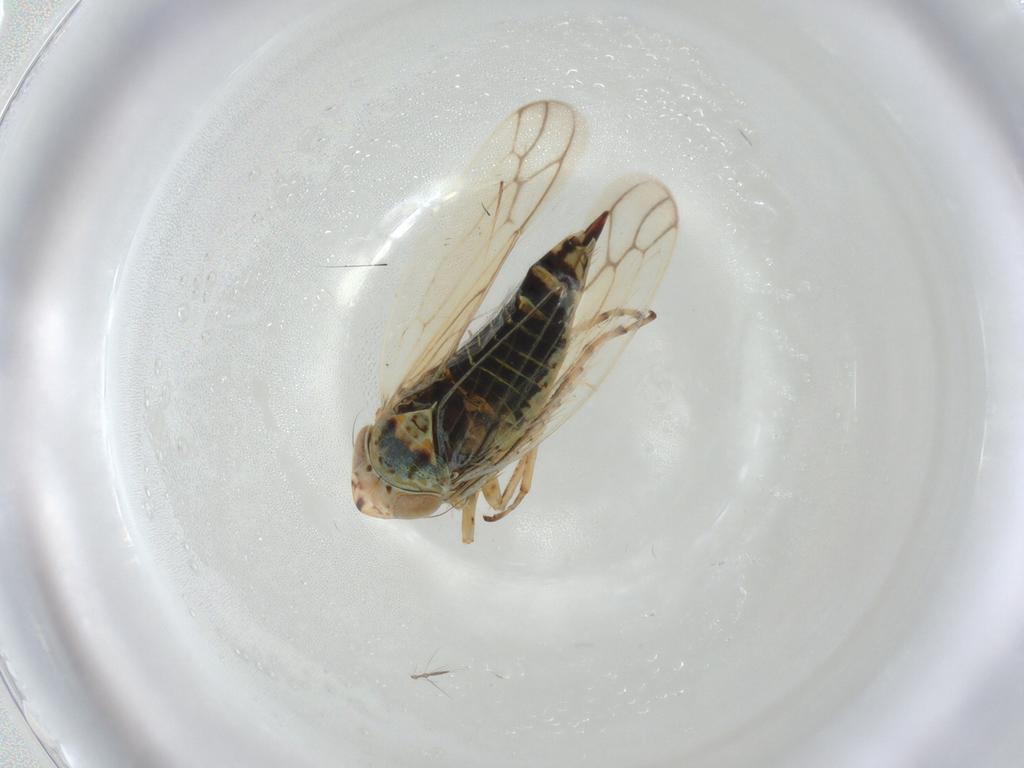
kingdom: Animalia
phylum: Arthropoda
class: Insecta
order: Hemiptera
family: Cicadellidae
